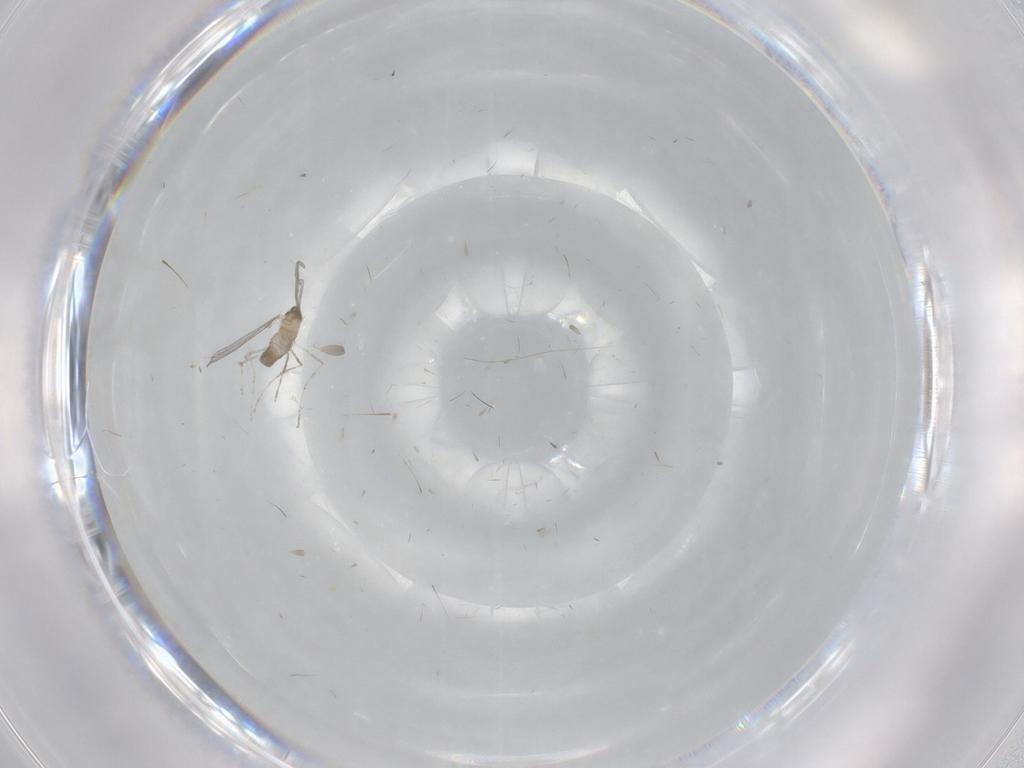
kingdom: Animalia
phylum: Arthropoda
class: Insecta
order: Diptera
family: Cecidomyiidae
